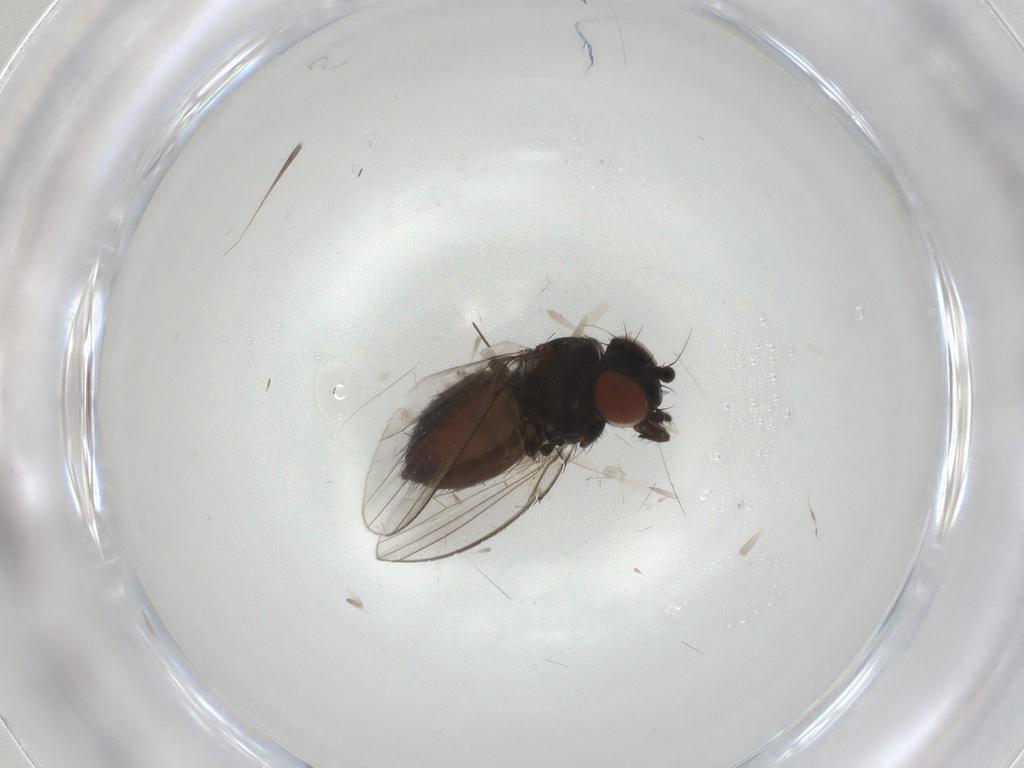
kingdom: Animalia
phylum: Arthropoda
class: Insecta
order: Diptera
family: Milichiidae
